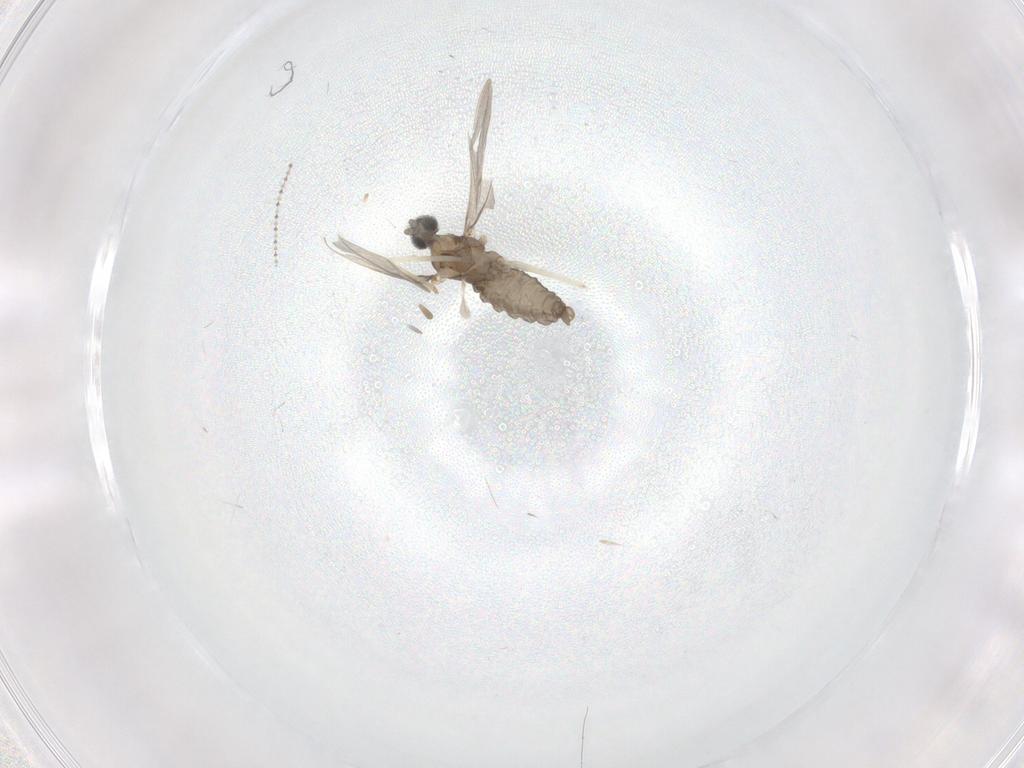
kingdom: Animalia
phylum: Arthropoda
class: Insecta
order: Diptera
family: Cecidomyiidae
